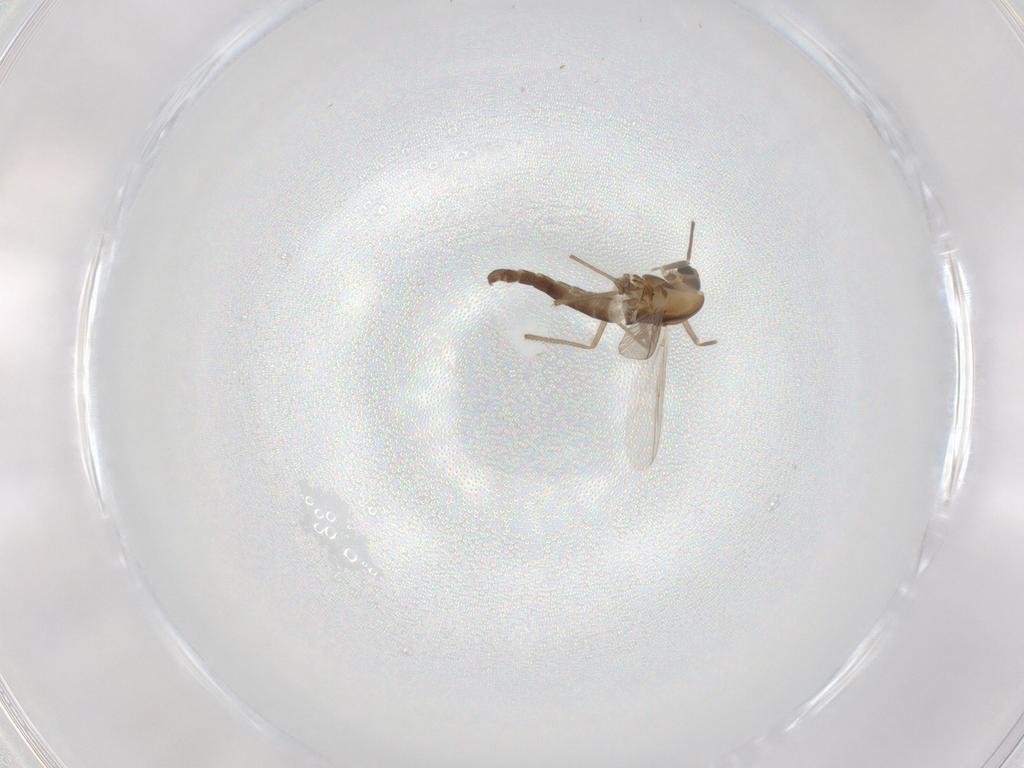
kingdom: Animalia
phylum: Arthropoda
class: Insecta
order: Diptera
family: Chironomidae
